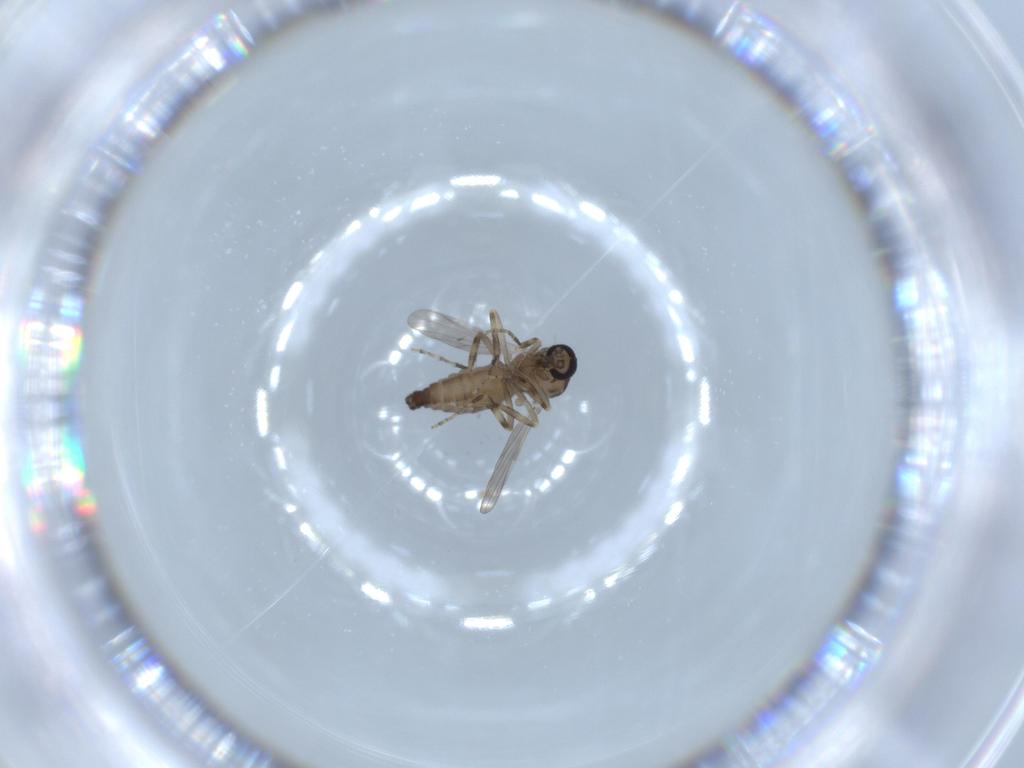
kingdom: Animalia
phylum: Arthropoda
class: Insecta
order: Diptera
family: Ceratopogonidae
